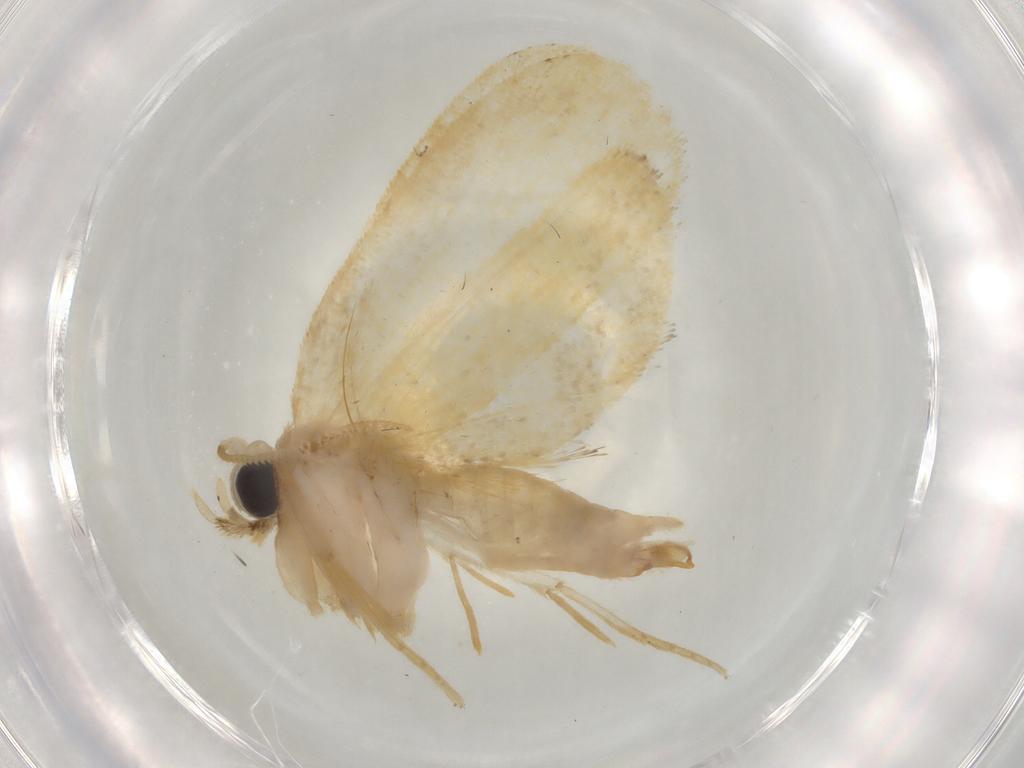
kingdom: Animalia
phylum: Arthropoda
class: Insecta
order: Lepidoptera
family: Psychidae
